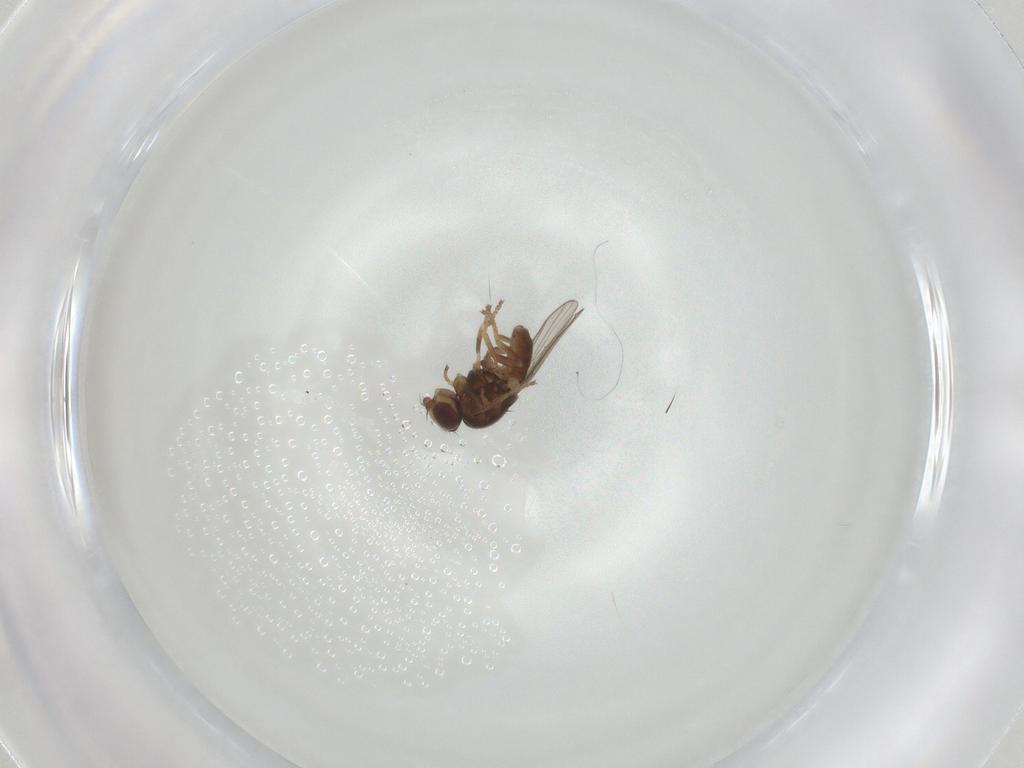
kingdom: Animalia
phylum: Arthropoda
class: Insecta
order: Diptera
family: Chloropidae
